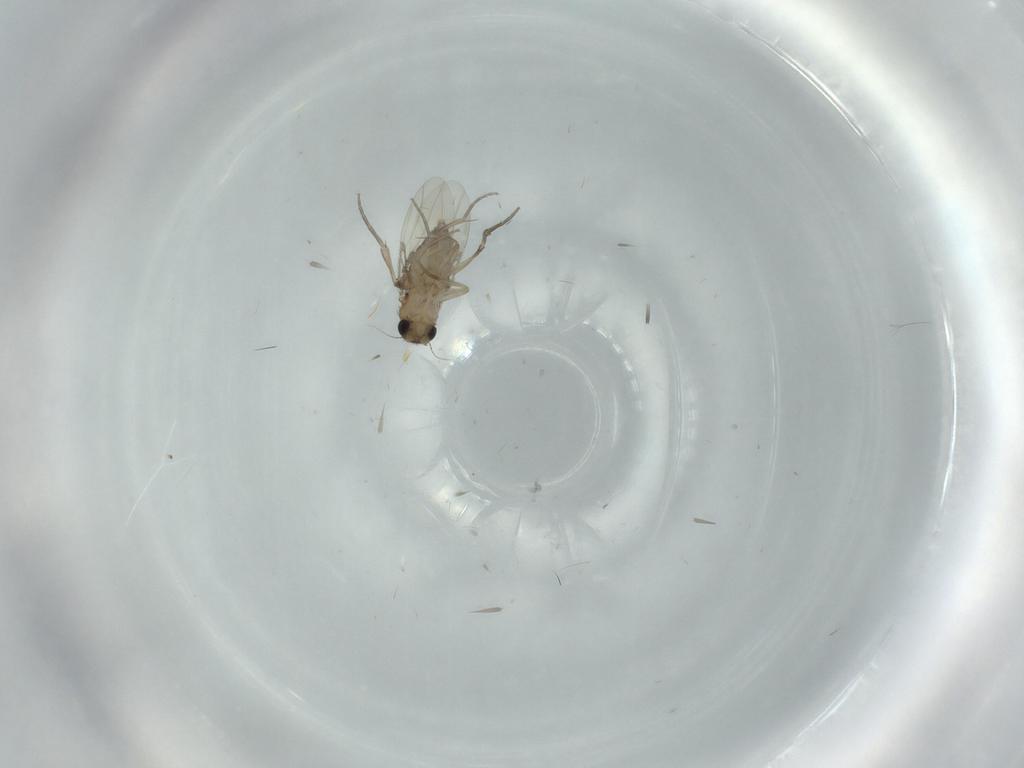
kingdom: Animalia
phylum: Arthropoda
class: Insecta
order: Diptera
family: Phoridae
